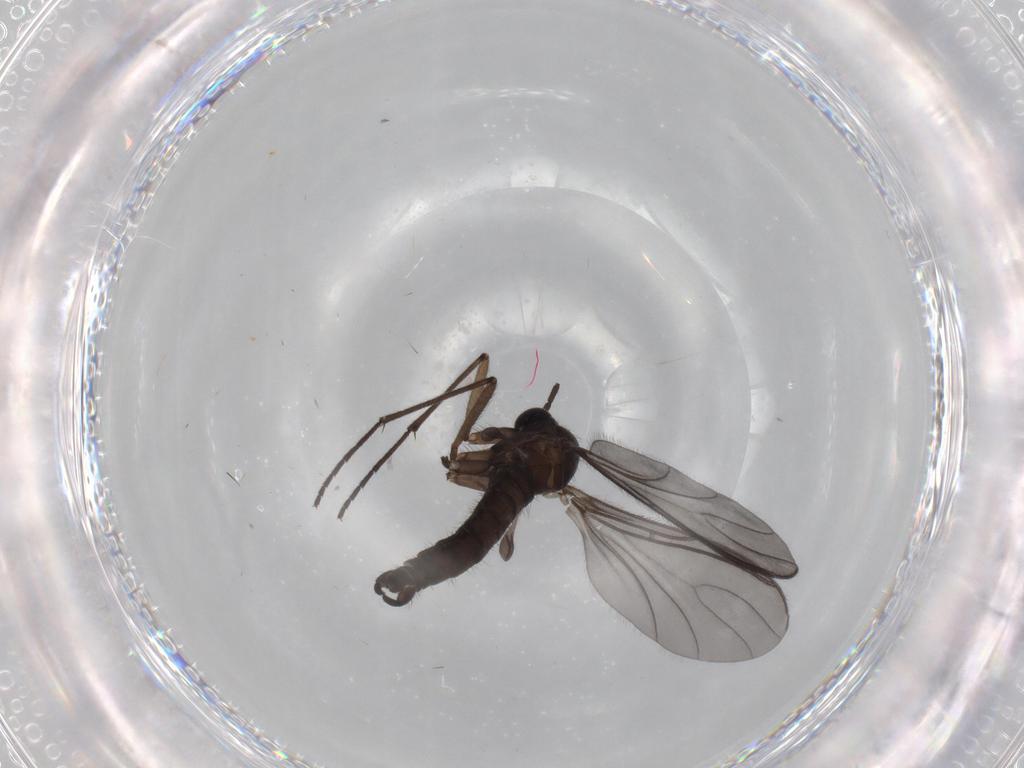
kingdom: Animalia
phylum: Arthropoda
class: Insecta
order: Diptera
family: Sciaridae
